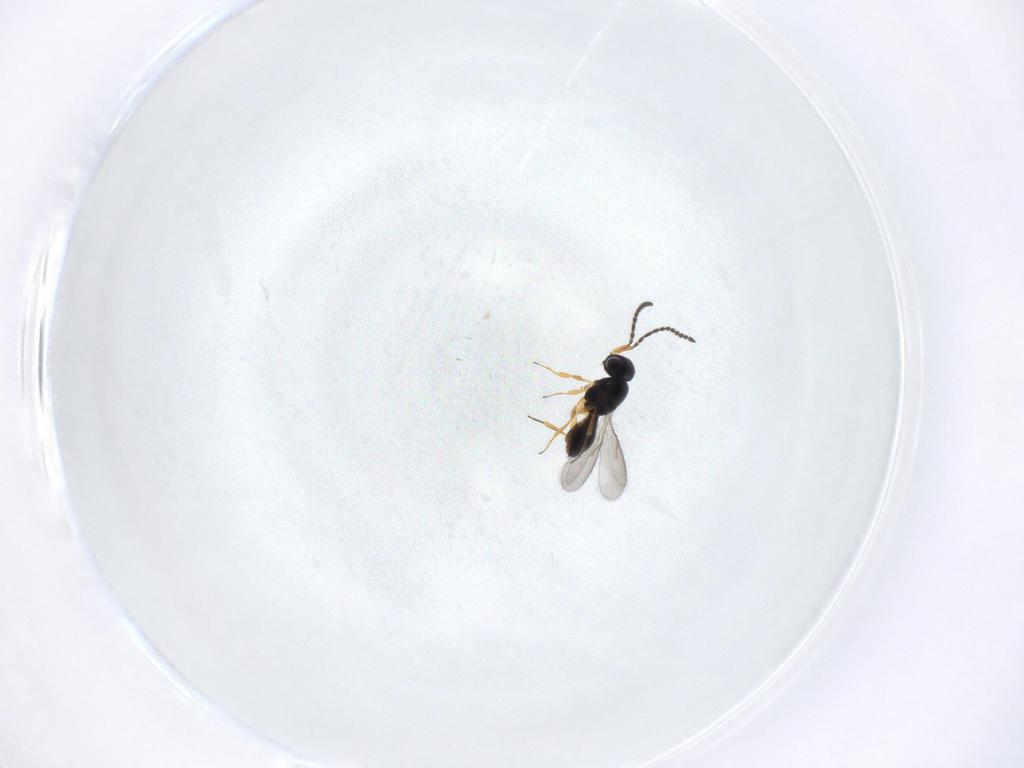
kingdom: Animalia
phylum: Arthropoda
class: Insecta
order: Hymenoptera
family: Scelionidae
